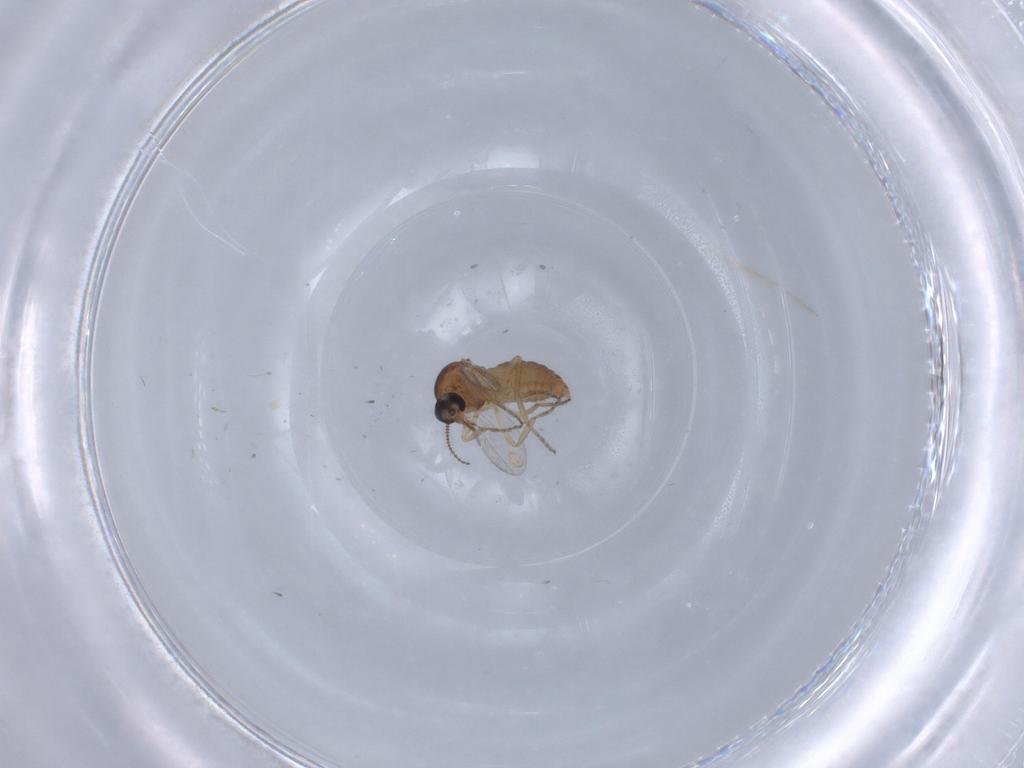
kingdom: Animalia
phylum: Arthropoda
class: Insecta
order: Diptera
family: Ceratopogonidae
